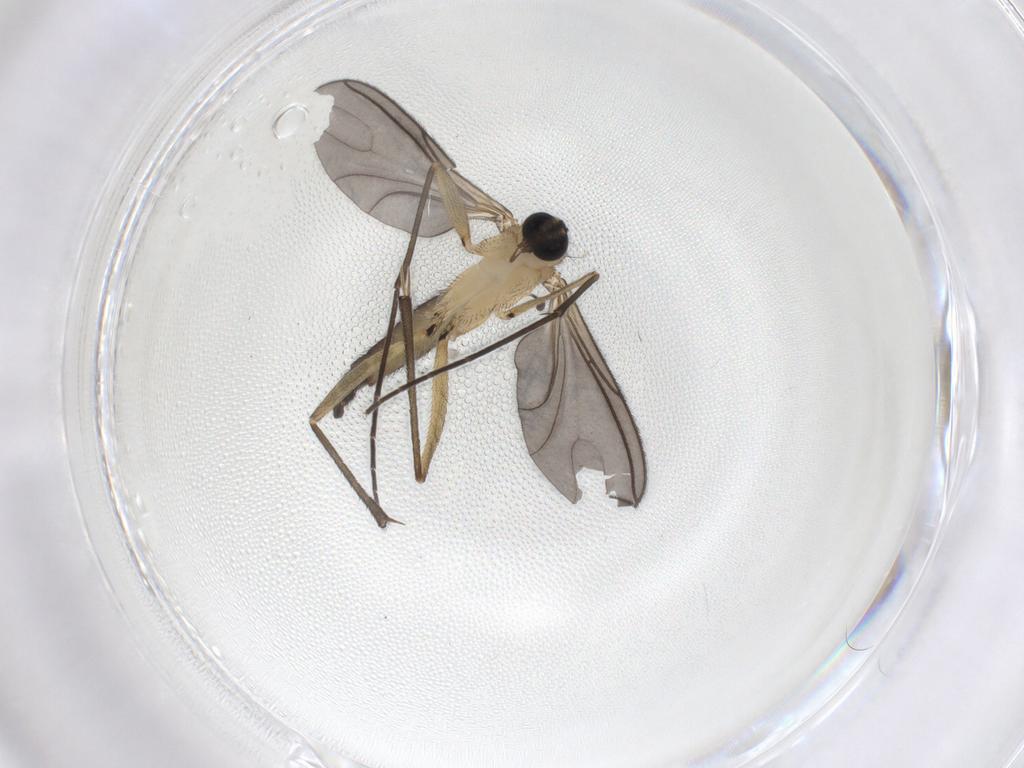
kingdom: Animalia
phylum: Arthropoda
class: Insecta
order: Diptera
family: Sciaridae
